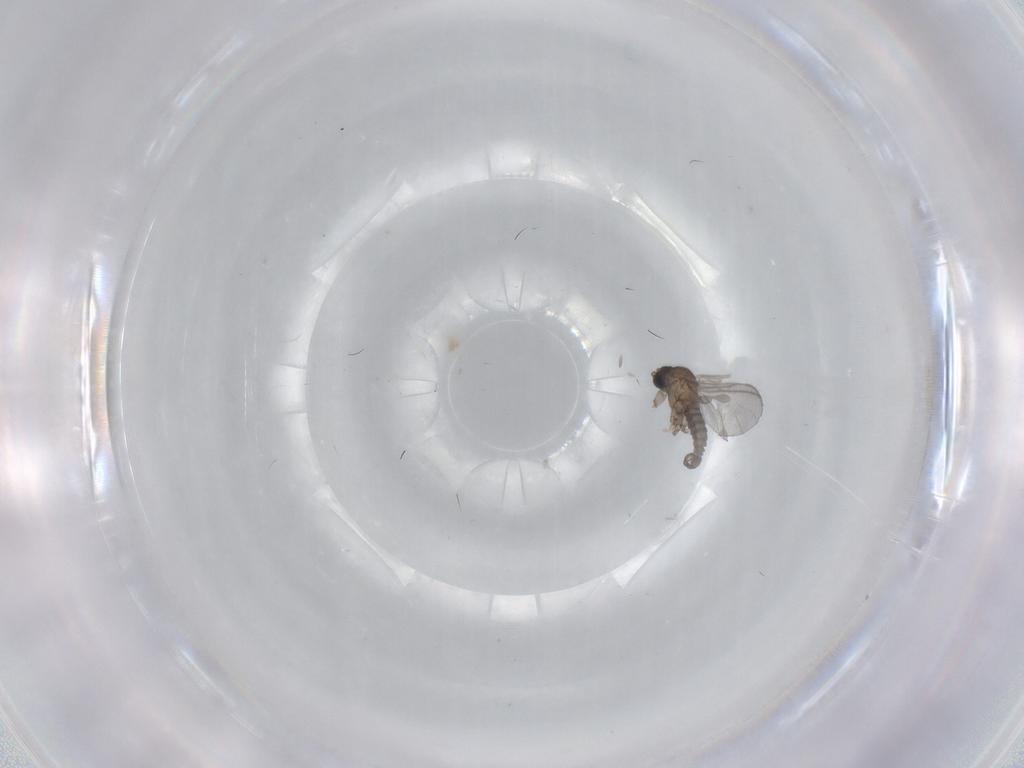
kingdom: Animalia
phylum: Arthropoda
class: Insecta
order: Diptera
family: Sciaridae
